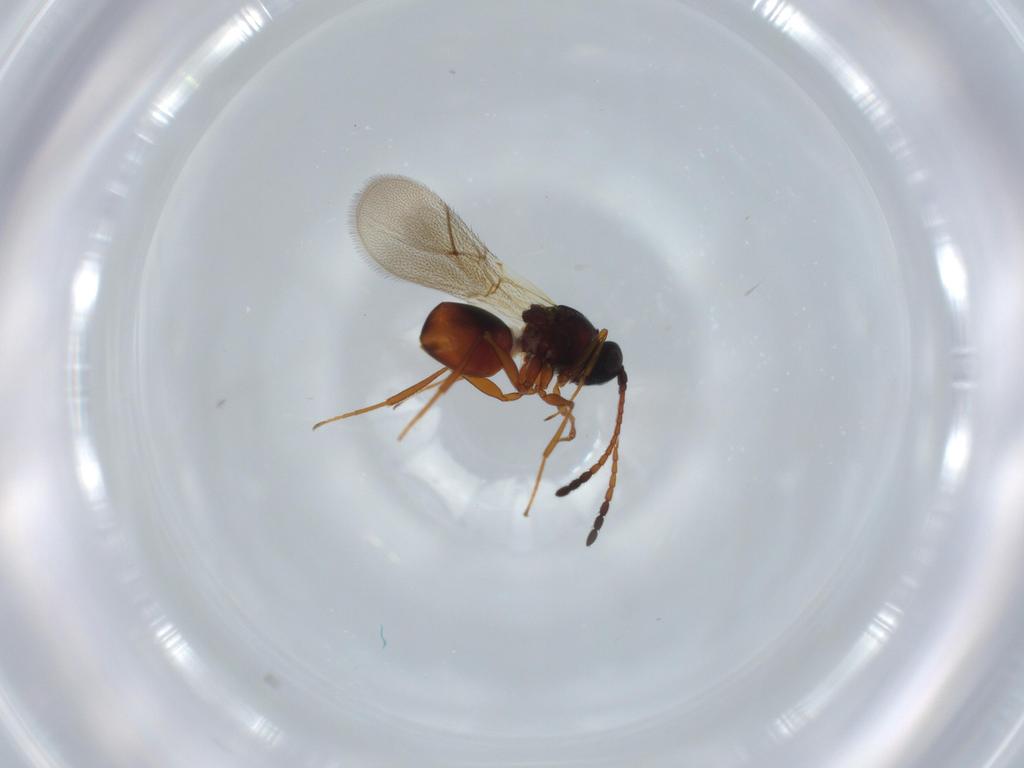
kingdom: Animalia
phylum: Arthropoda
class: Insecta
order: Hymenoptera
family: Figitidae
